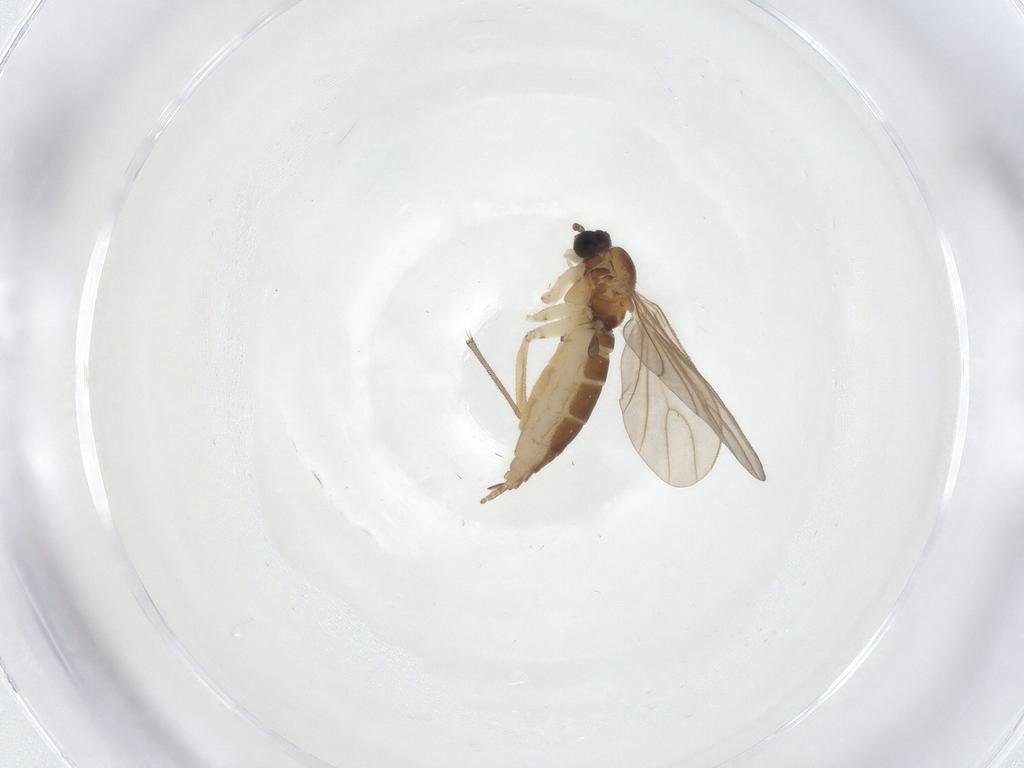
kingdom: Animalia
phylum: Arthropoda
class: Insecta
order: Diptera
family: Sciaridae
